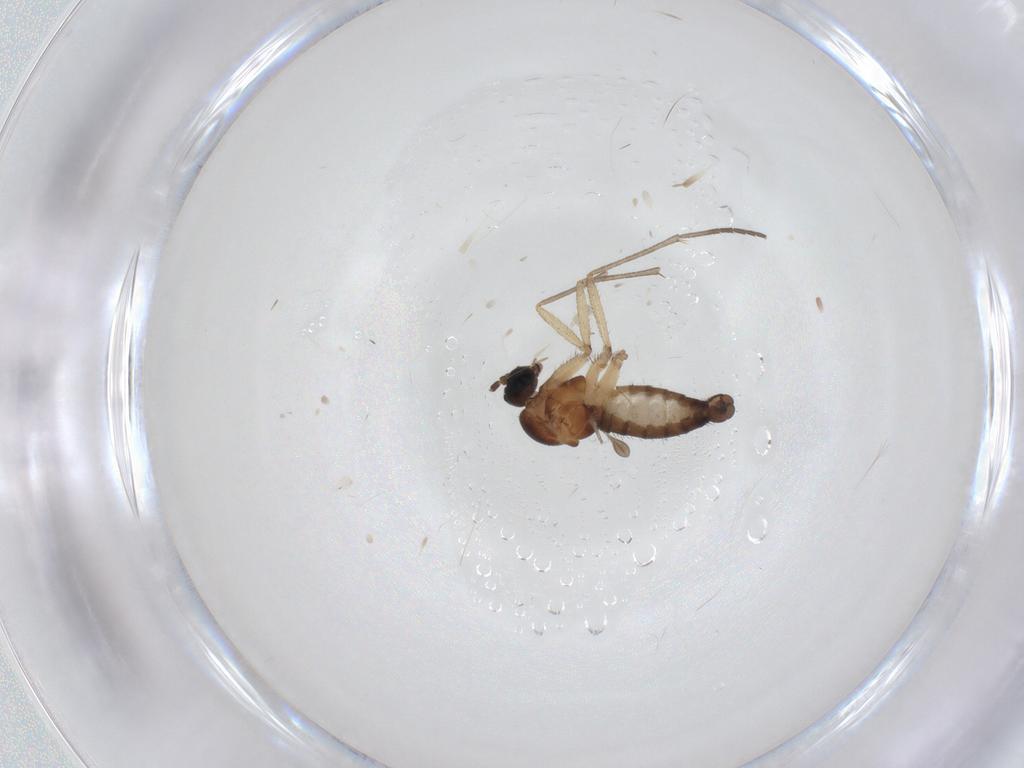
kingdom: Animalia
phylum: Arthropoda
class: Insecta
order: Diptera
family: Sciaridae
